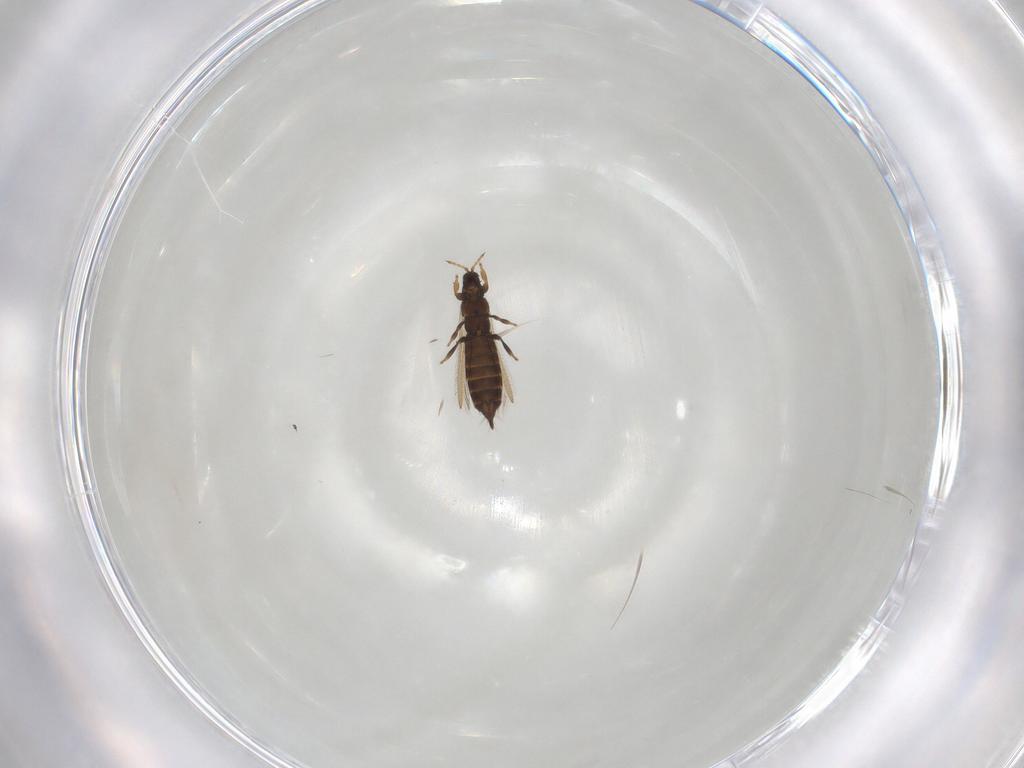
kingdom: Animalia
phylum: Arthropoda
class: Insecta
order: Thysanoptera
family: Thripidae
